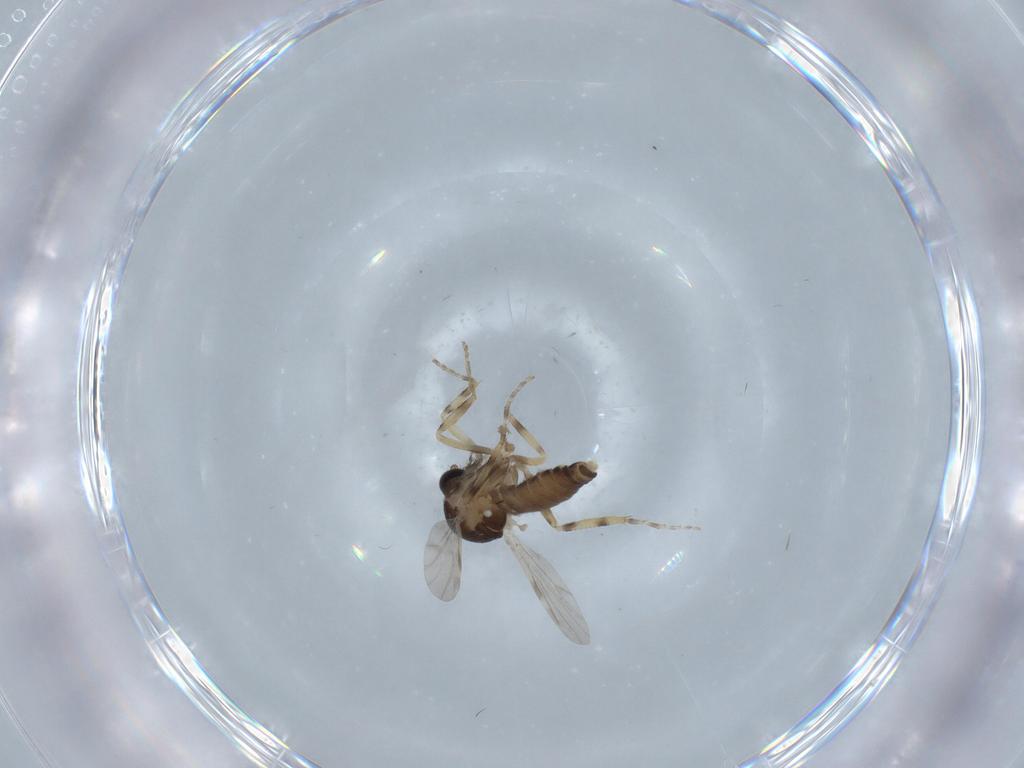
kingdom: Animalia
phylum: Arthropoda
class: Insecta
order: Diptera
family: Ceratopogonidae
